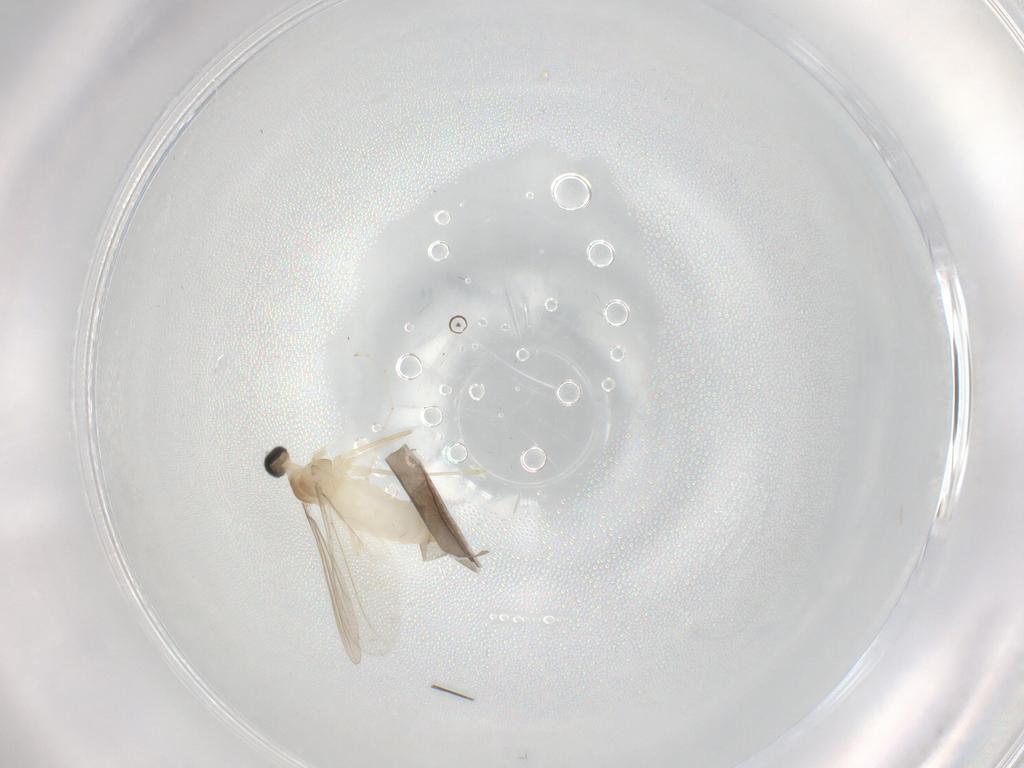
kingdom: Animalia
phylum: Arthropoda
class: Insecta
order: Diptera
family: Cecidomyiidae
